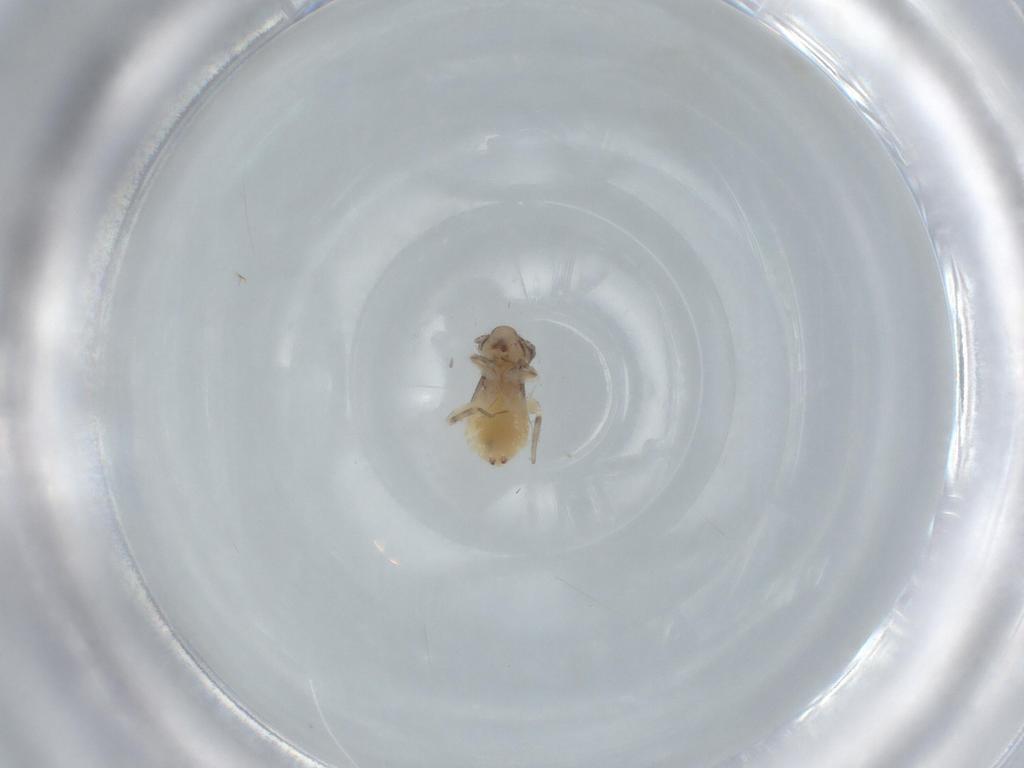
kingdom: Animalia
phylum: Arthropoda
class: Insecta
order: Psocodea
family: Lepidopsocidae
